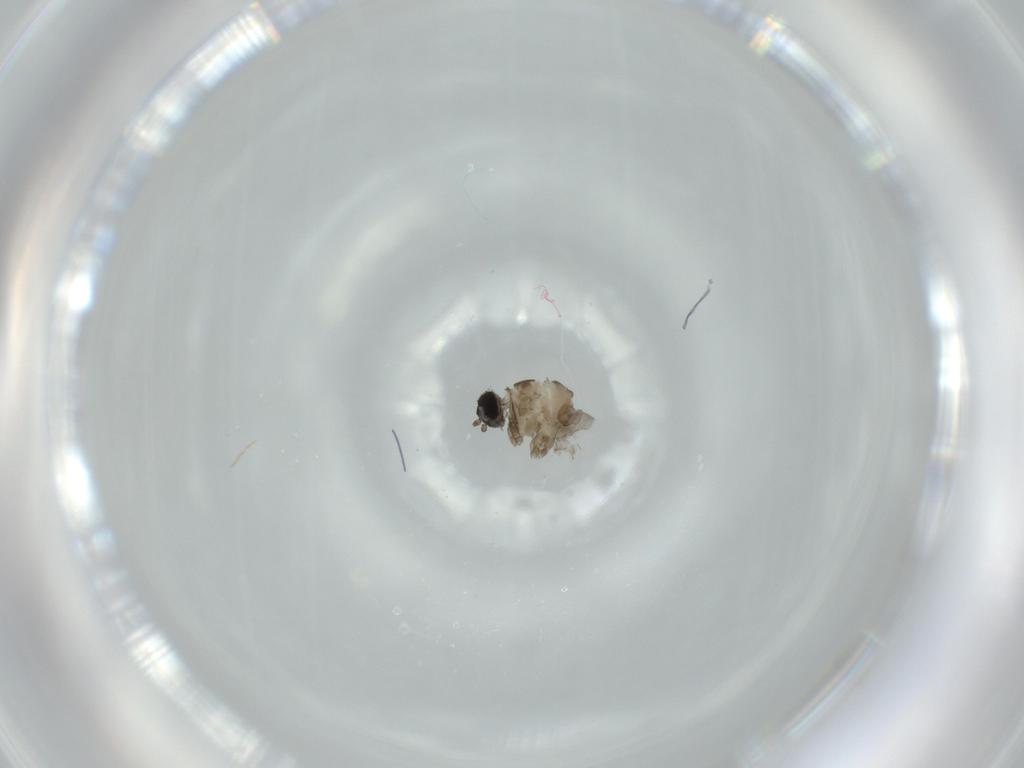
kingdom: Animalia
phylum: Arthropoda
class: Insecta
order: Diptera
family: Cecidomyiidae
